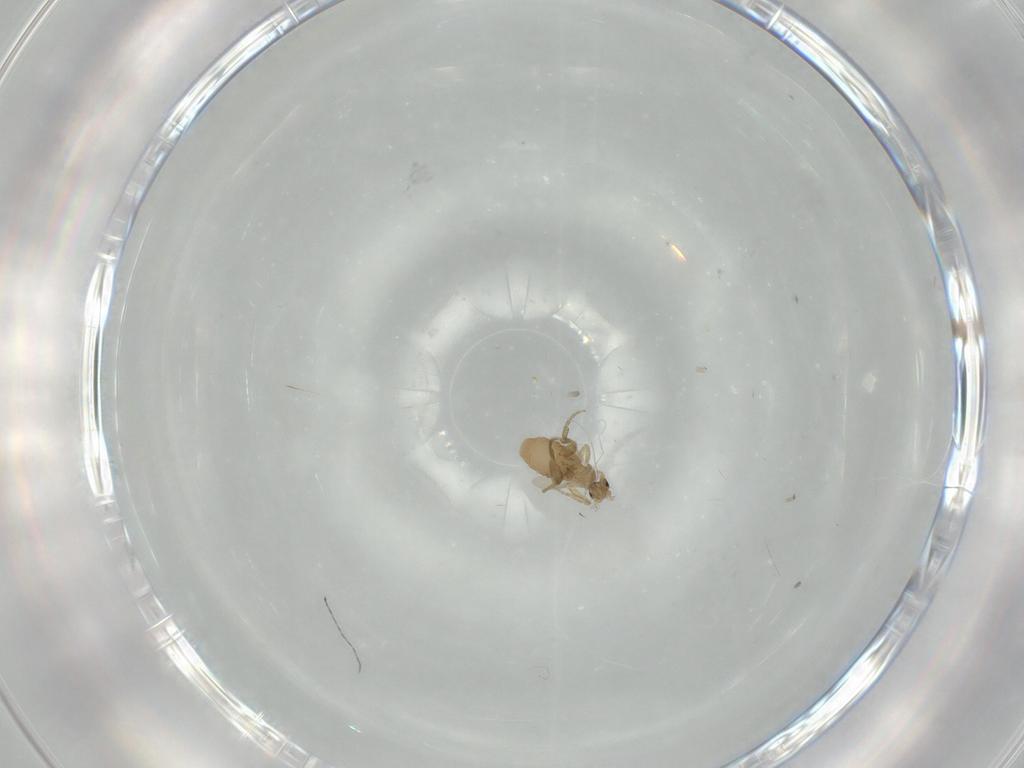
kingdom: Animalia
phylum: Arthropoda
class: Insecta
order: Diptera
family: Phoridae
